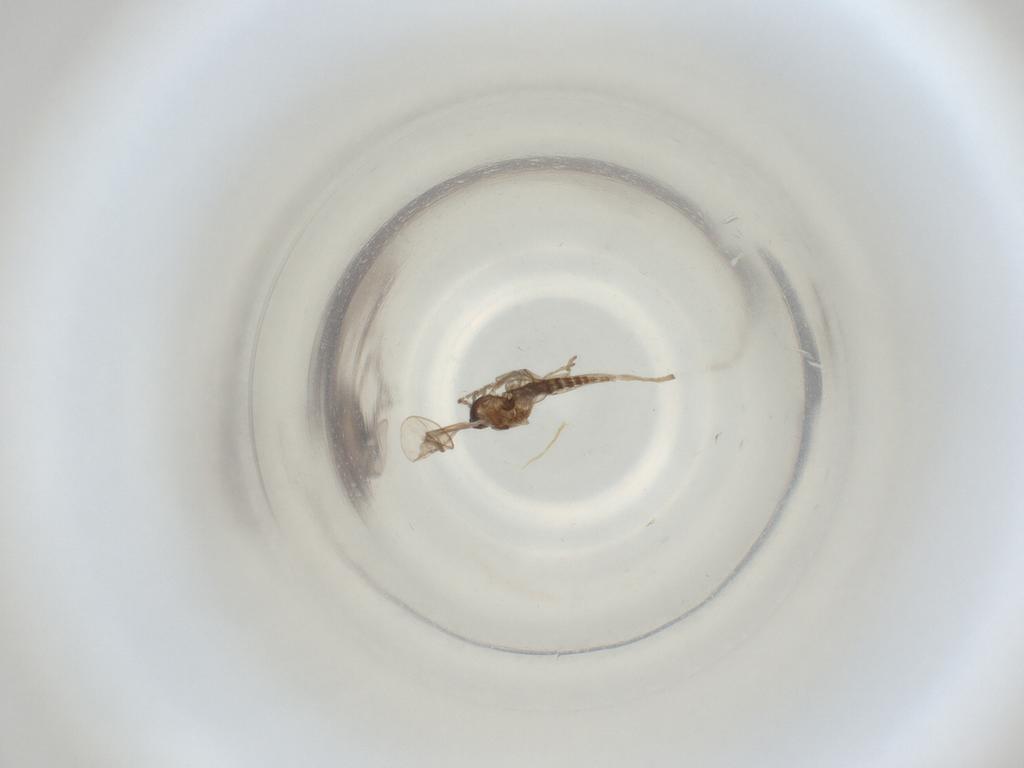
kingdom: Animalia
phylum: Arthropoda
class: Insecta
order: Diptera
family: Cecidomyiidae
